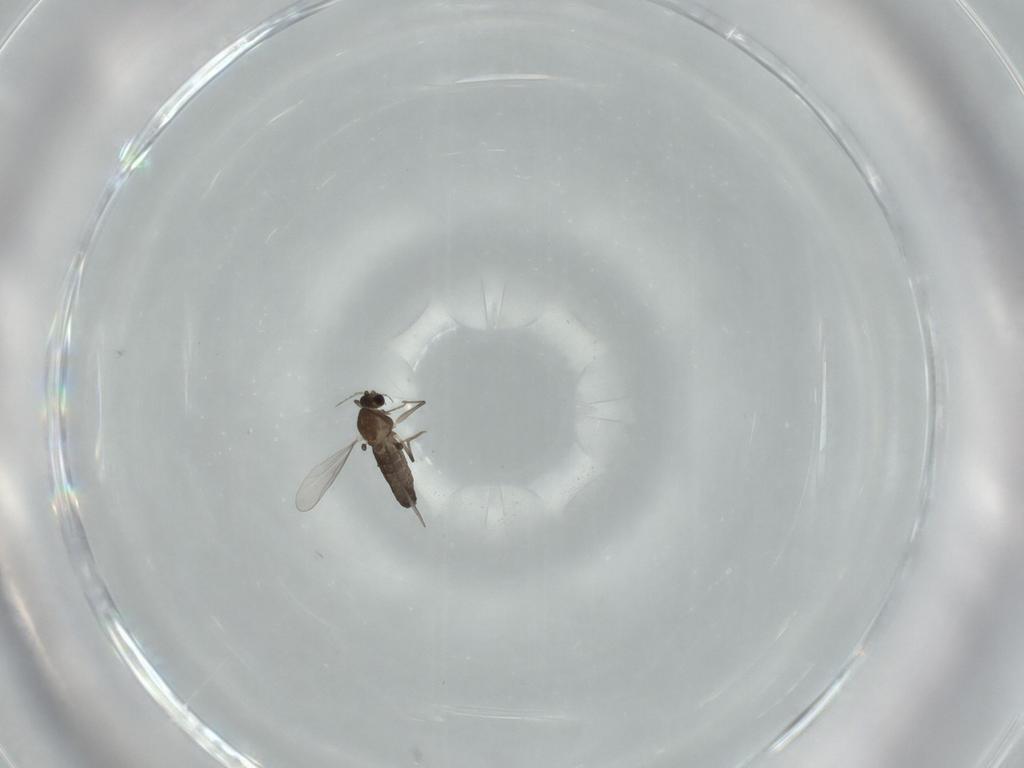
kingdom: Animalia
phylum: Arthropoda
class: Insecta
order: Diptera
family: Chironomidae
